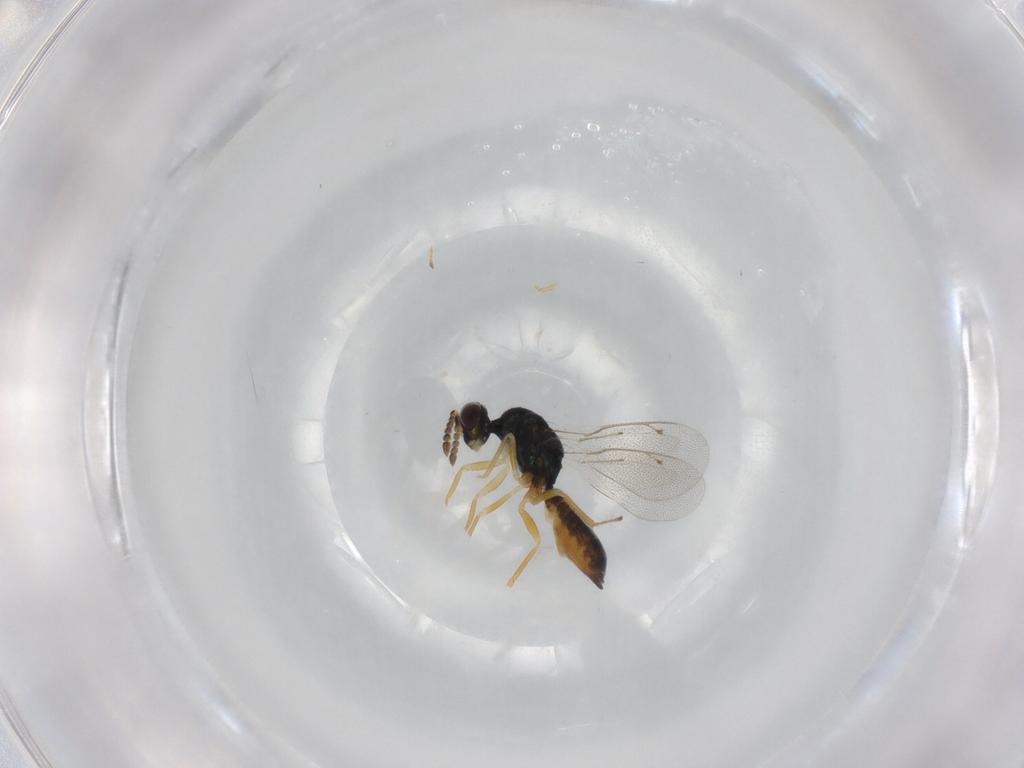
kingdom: Animalia
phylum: Arthropoda
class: Insecta
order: Hymenoptera
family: Eulophidae
